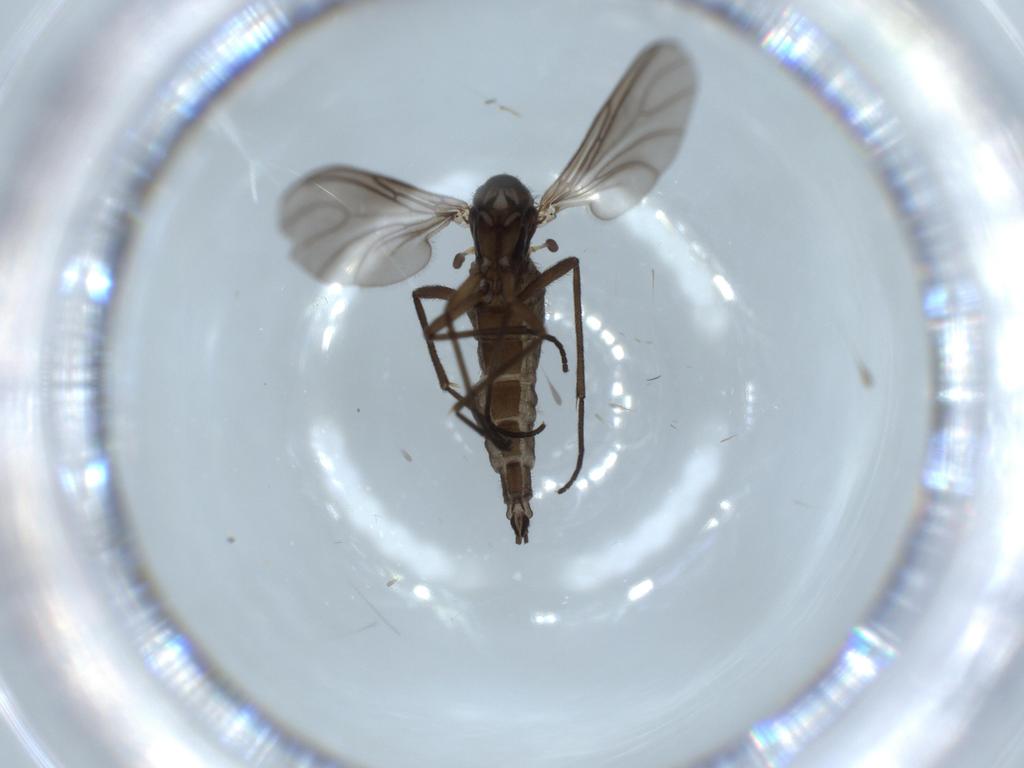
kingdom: Animalia
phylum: Arthropoda
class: Insecta
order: Diptera
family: Sciaridae
